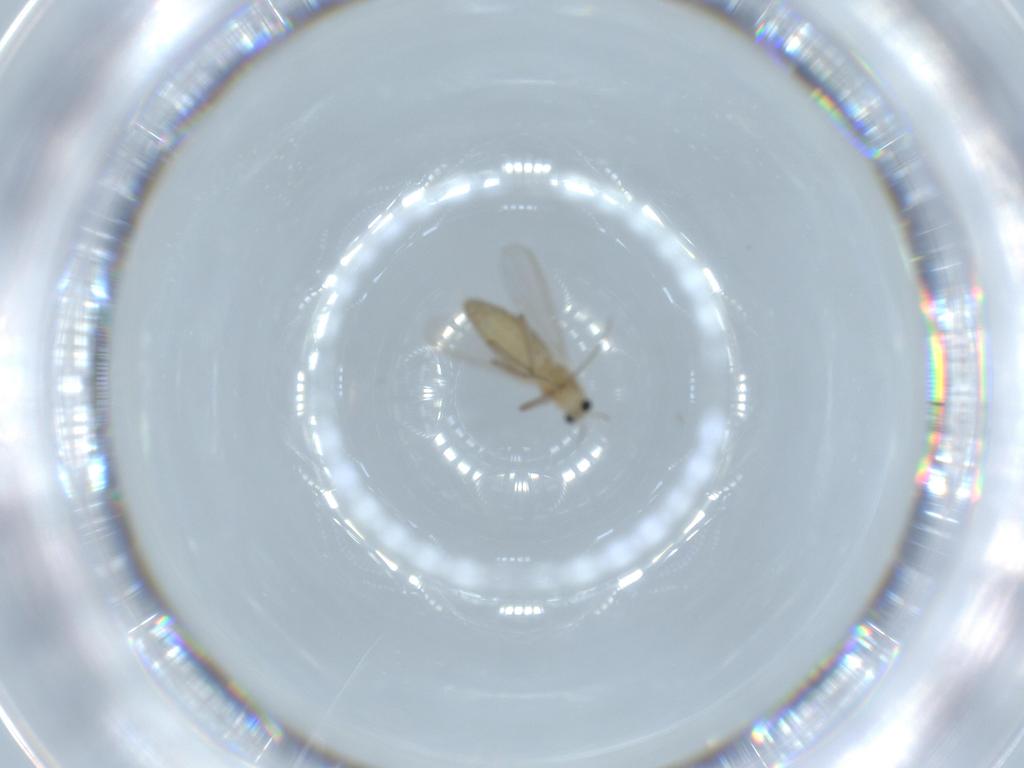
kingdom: Animalia
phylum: Arthropoda
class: Insecta
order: Diptera
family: Chironomidae
